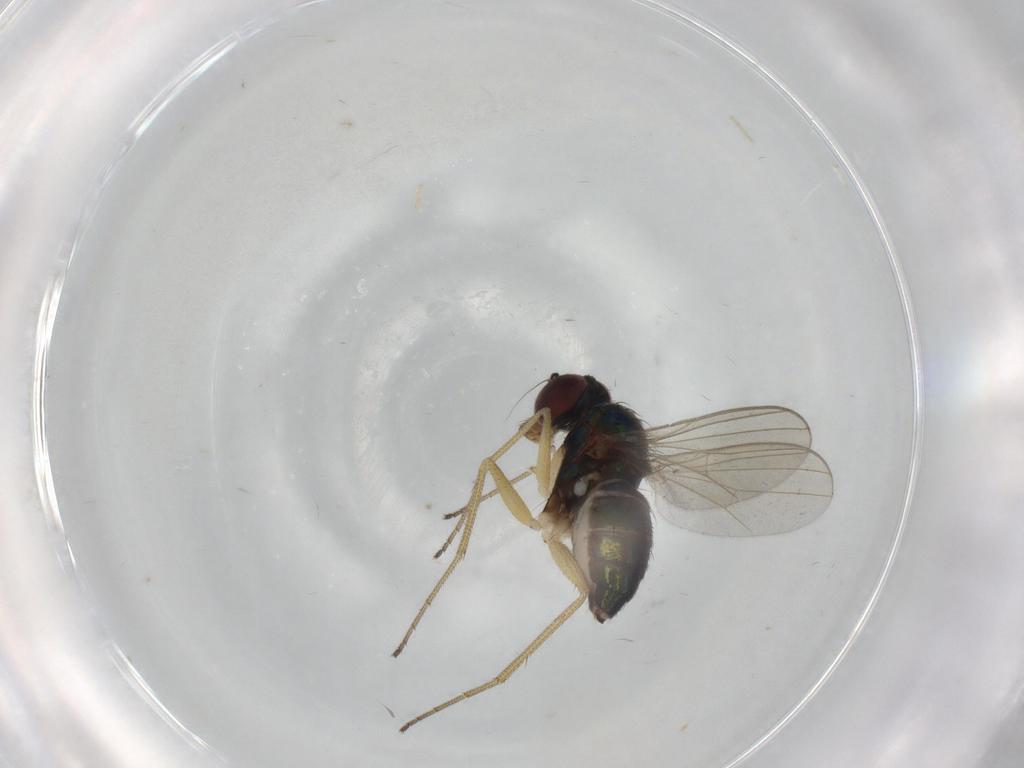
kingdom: Animalia
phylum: Arthropoda
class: Insecta
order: Diptera
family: Dolichopodidae
